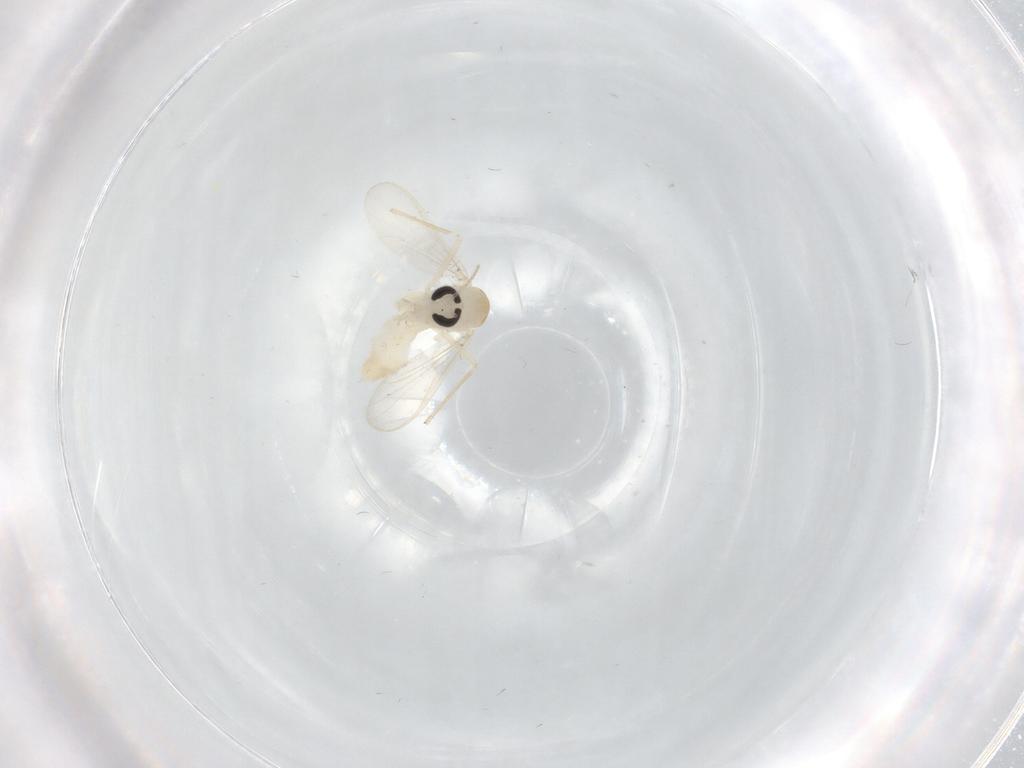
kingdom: Animalia
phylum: Arthropoda
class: Insecta
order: Diptera
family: Chironomidae
